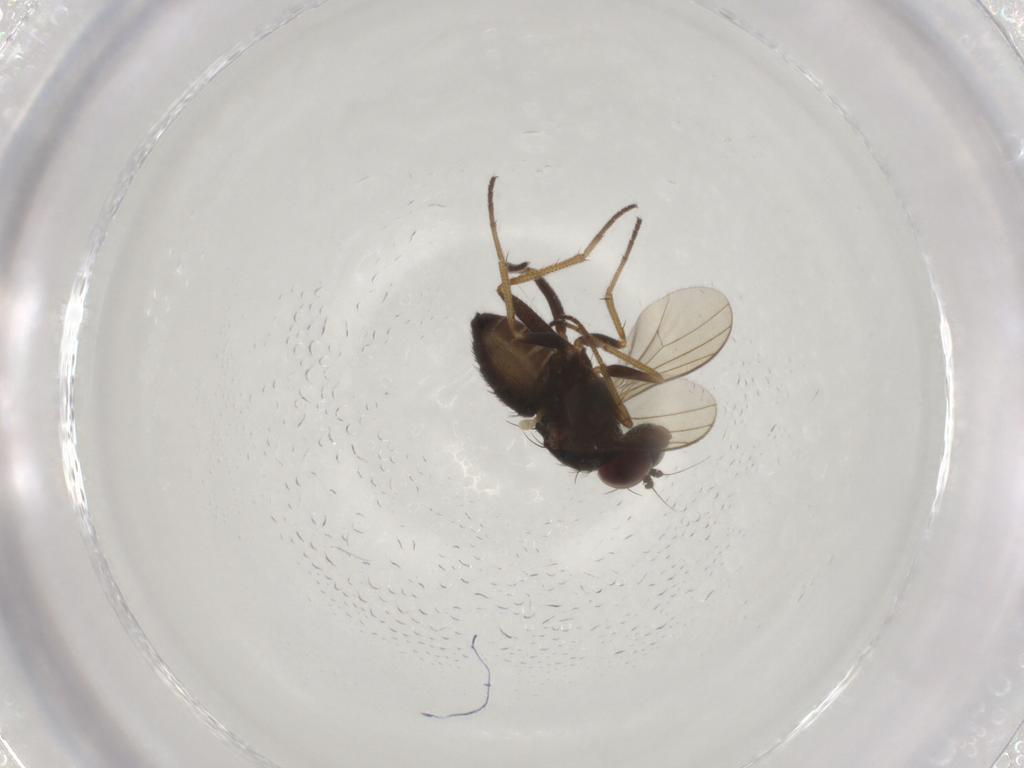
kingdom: Animalia
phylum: Arthropoda
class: Insecta
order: Diptera
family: Dolichopodidae
